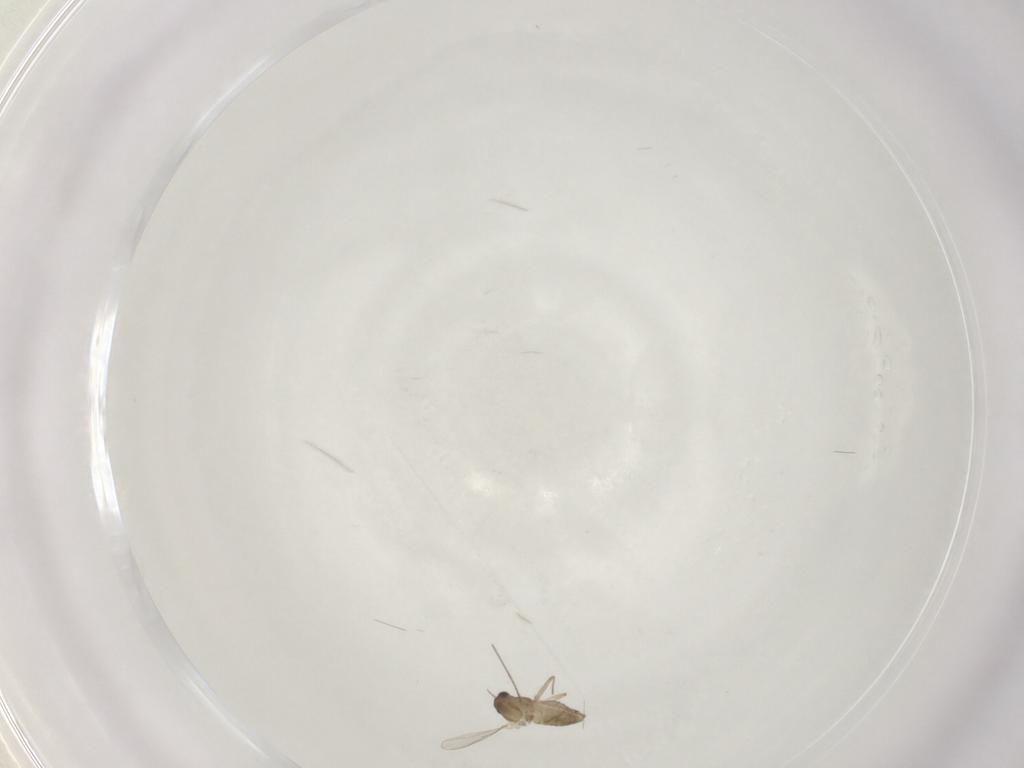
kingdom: Animalia
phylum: Arthropoda
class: Insecta
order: Diptera
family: Chironomidae
